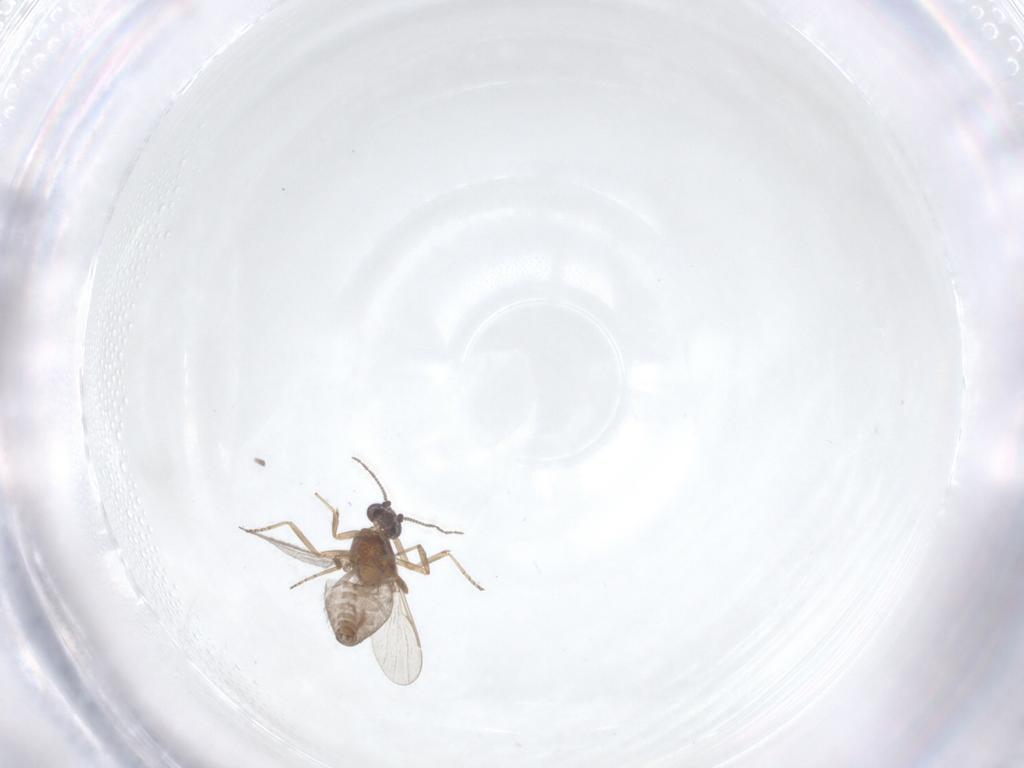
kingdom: Animalia
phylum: Arthropoda
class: Insecta
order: Diptera
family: Ceratopogonidae
